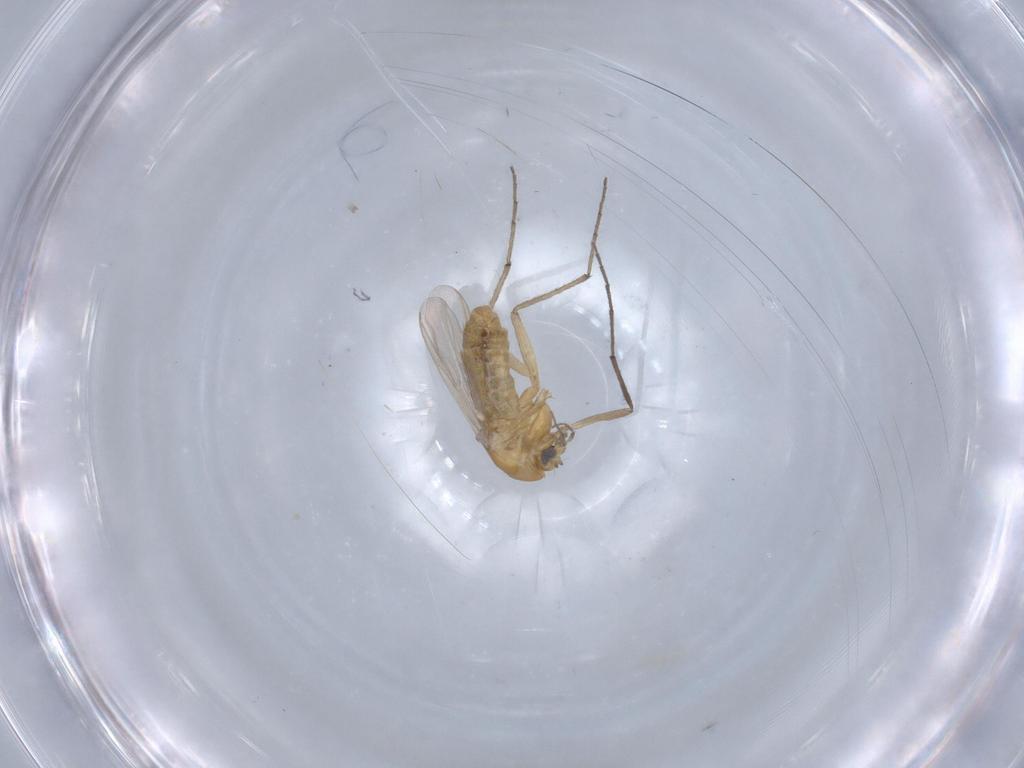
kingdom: Animalia
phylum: Arthropoda
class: Insecta
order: Diptera
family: Chironomidae
